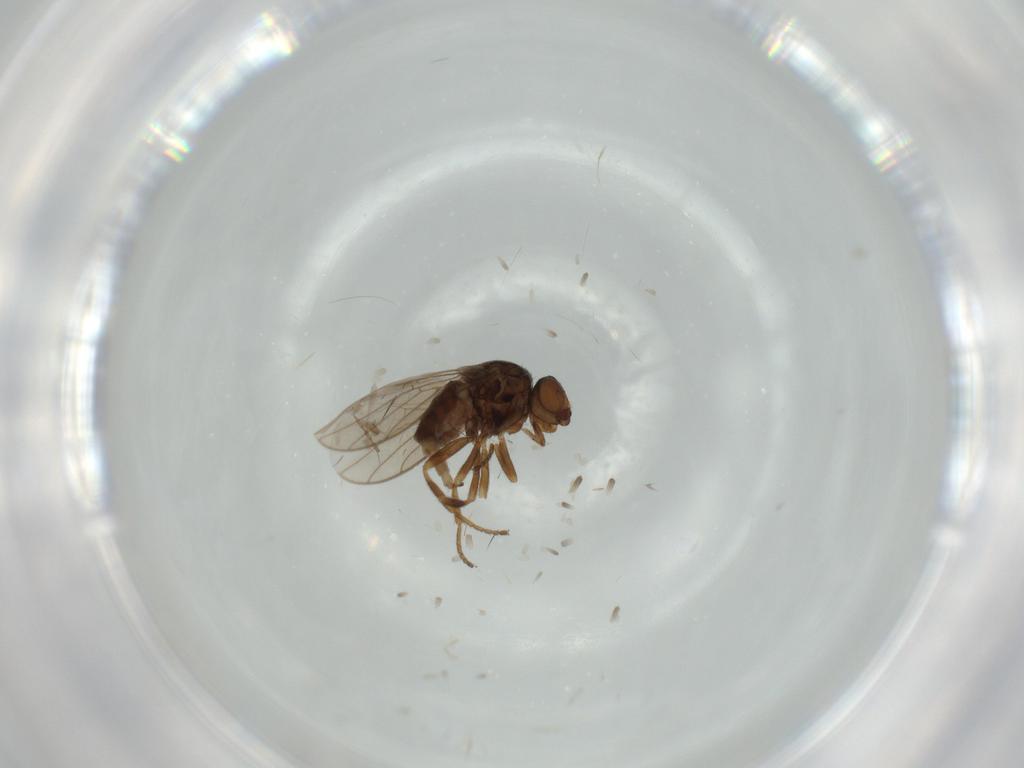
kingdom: Animalia
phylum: Arthropoda
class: Insecta
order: Diptera
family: Chloropidae
